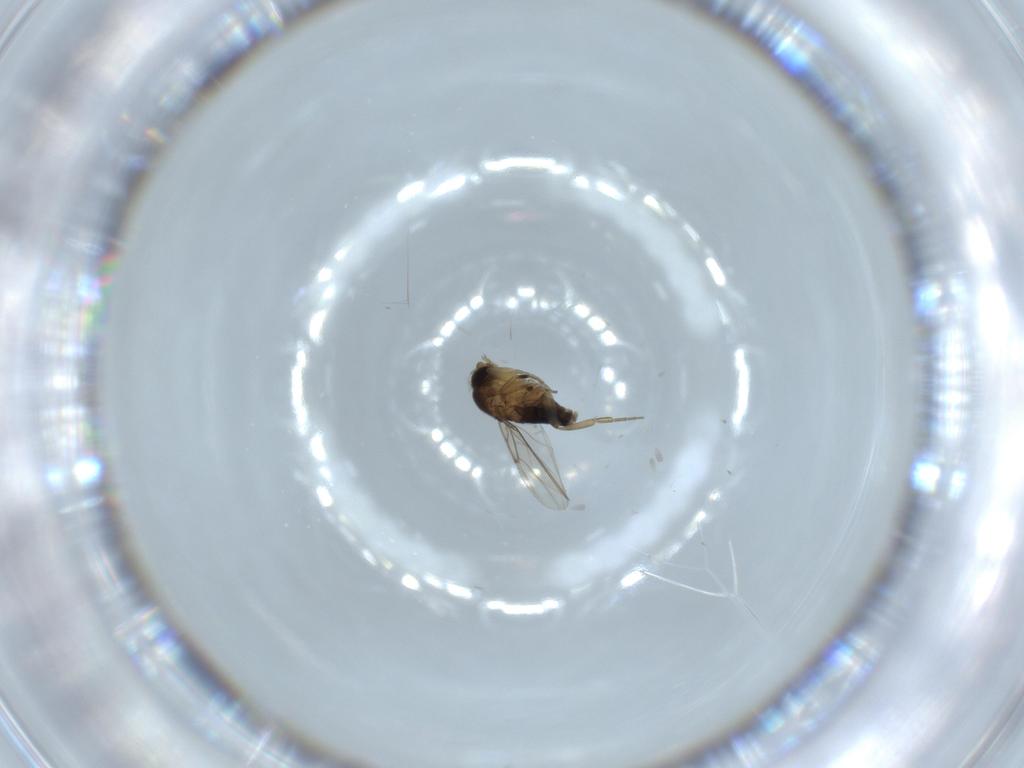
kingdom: Animalia
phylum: Arthropoda
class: Insecta
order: Diptera
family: Phoridae
